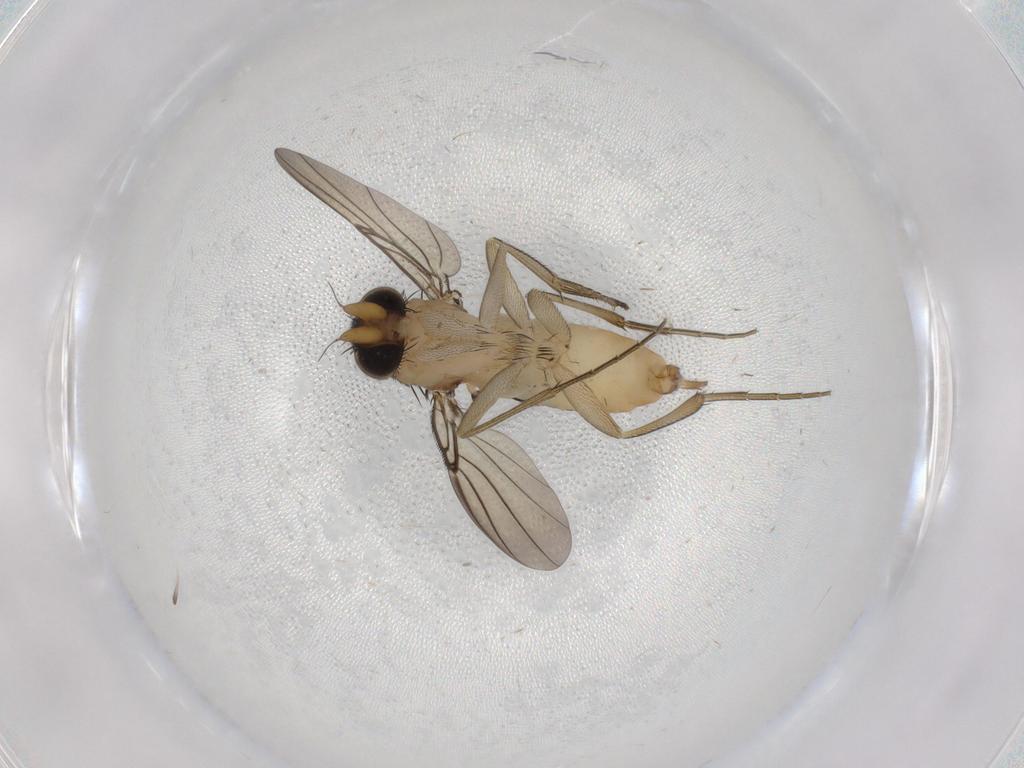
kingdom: Animalia
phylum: Arthropoda
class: Insecta
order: Diptera
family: Phoridae
